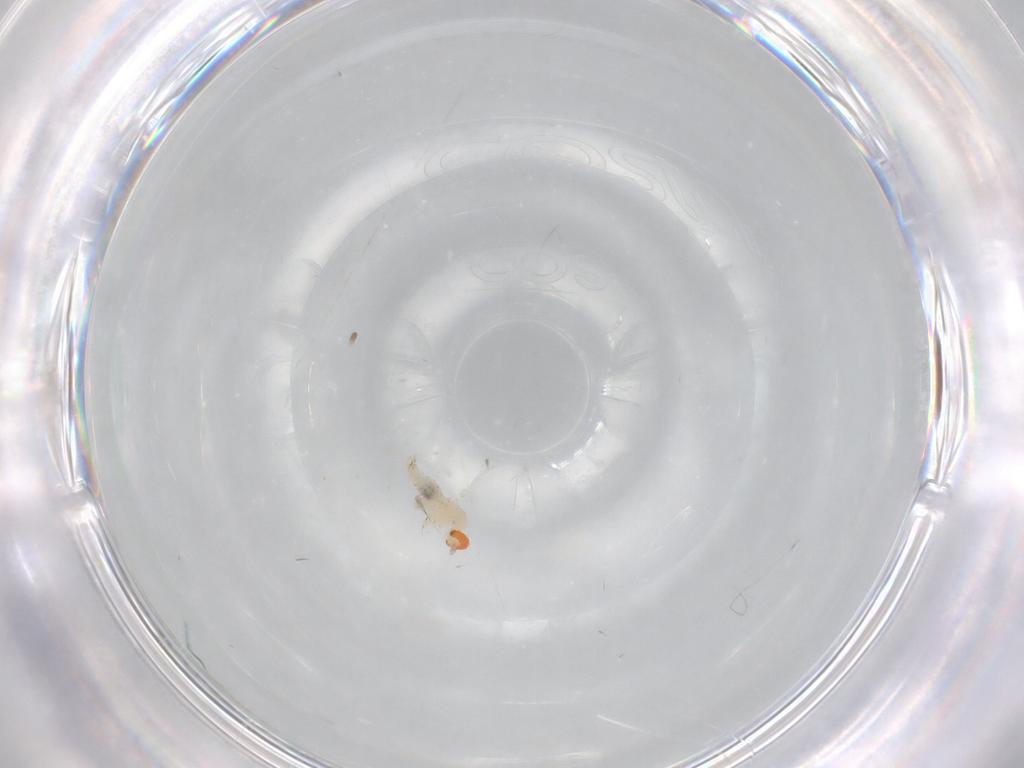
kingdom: Animalia
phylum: Arthropoda
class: Insecta
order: Diptera
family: Cecidomyiidae
